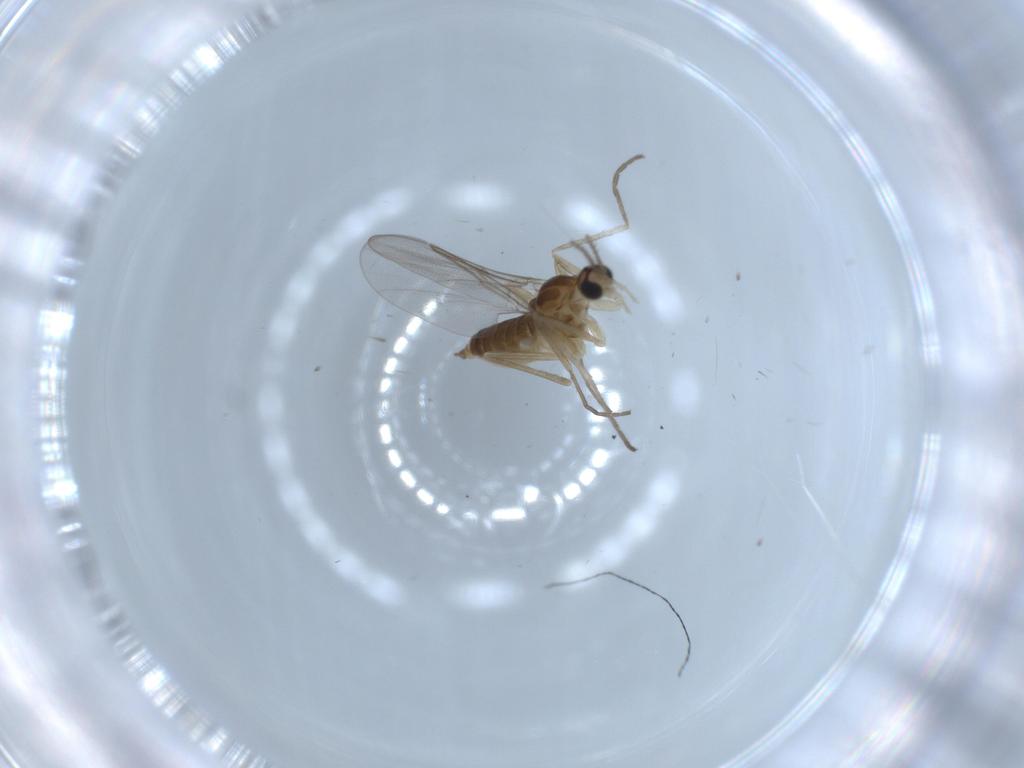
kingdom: Animalia
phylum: Arthropoda
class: Insecta
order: Diptera
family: Cecidomyiidae
